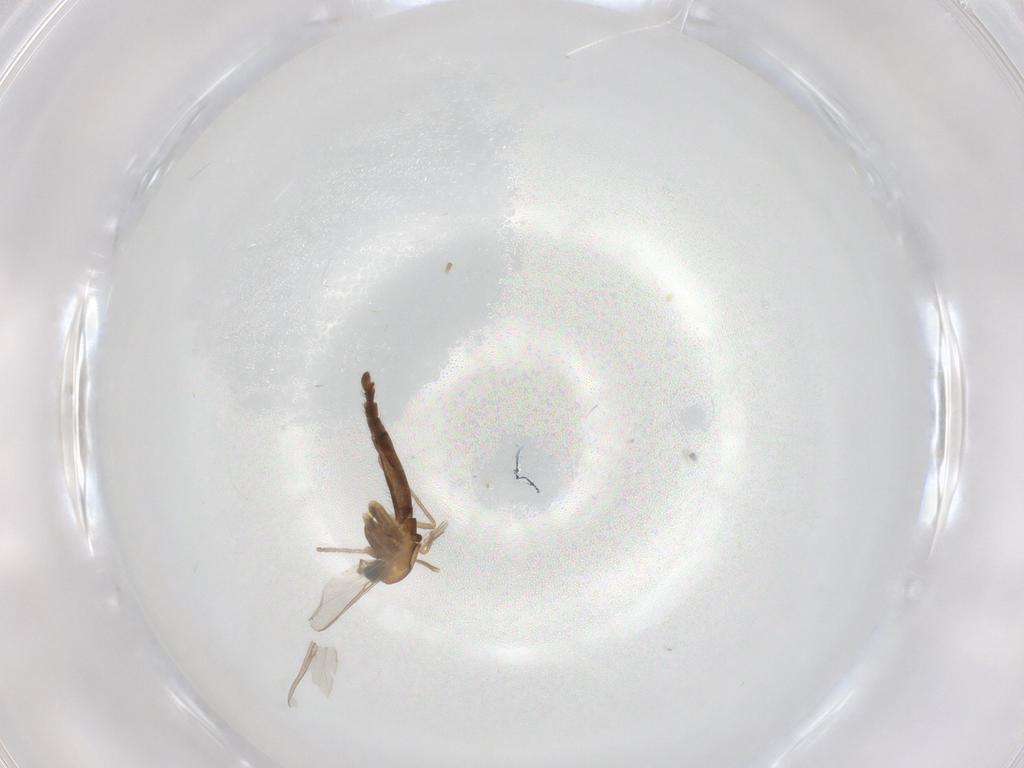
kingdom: Animalia
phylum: Arthropoda
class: Insecta
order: Diptera
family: Chironomidae
